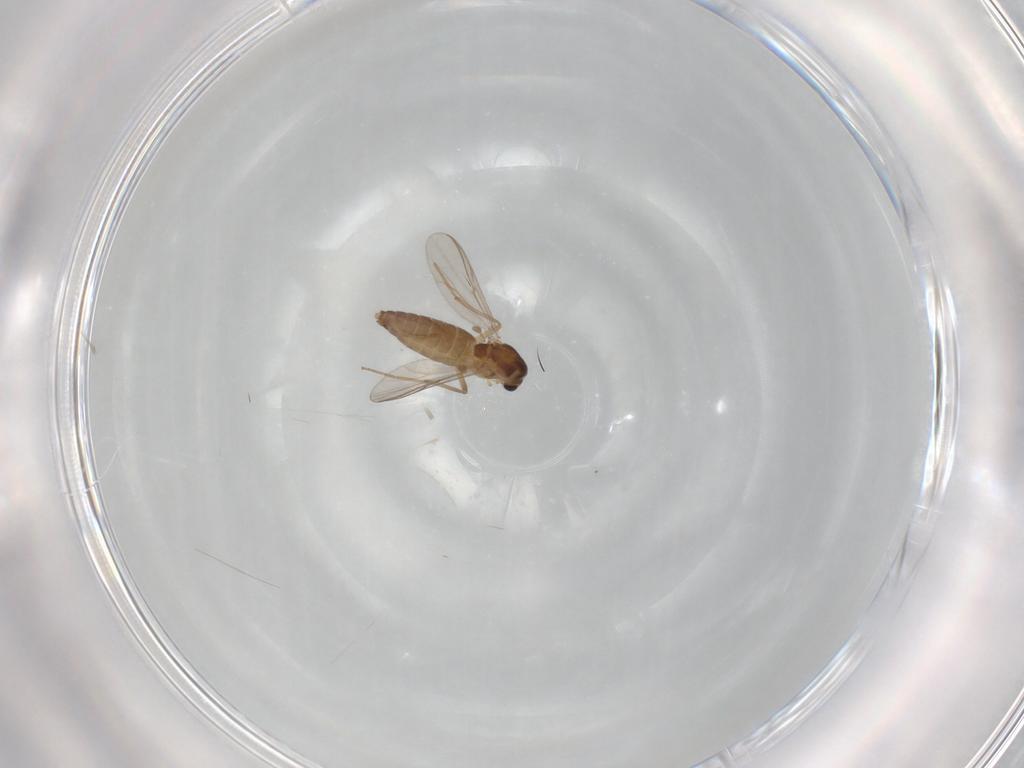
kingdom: Animalia
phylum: Arthropoda
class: Insecta
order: Diptera
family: Chironomidae
